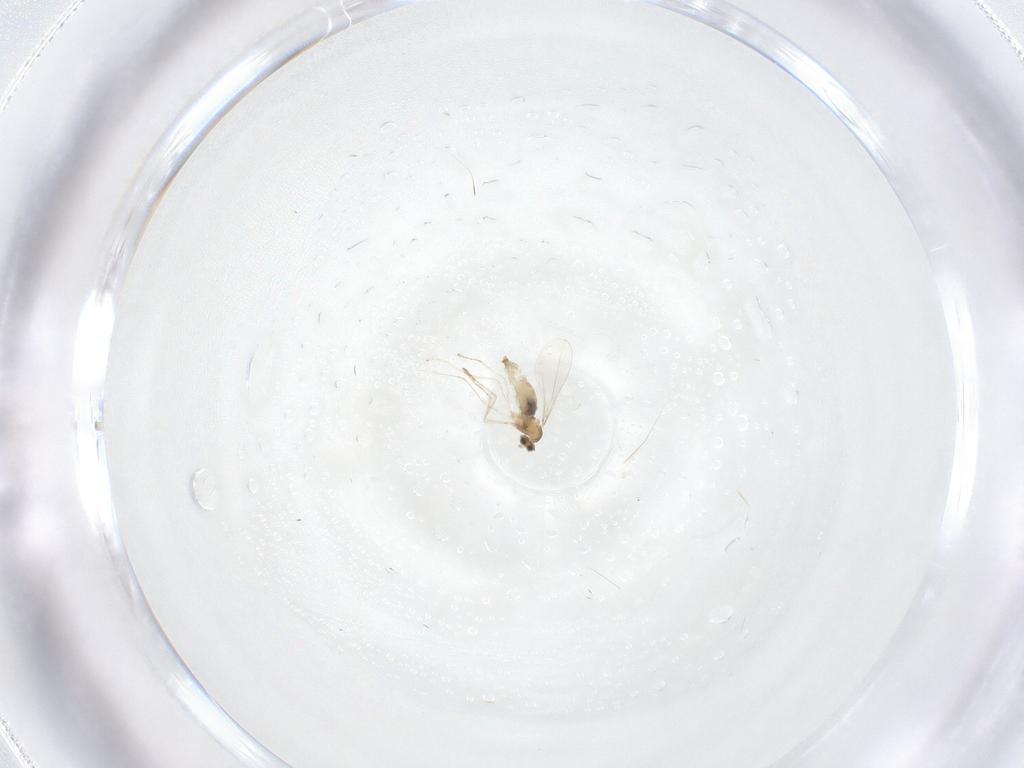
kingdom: Animalia
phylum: Arthropoda
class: Insecta
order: Diptera
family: Cecidomyiidae
